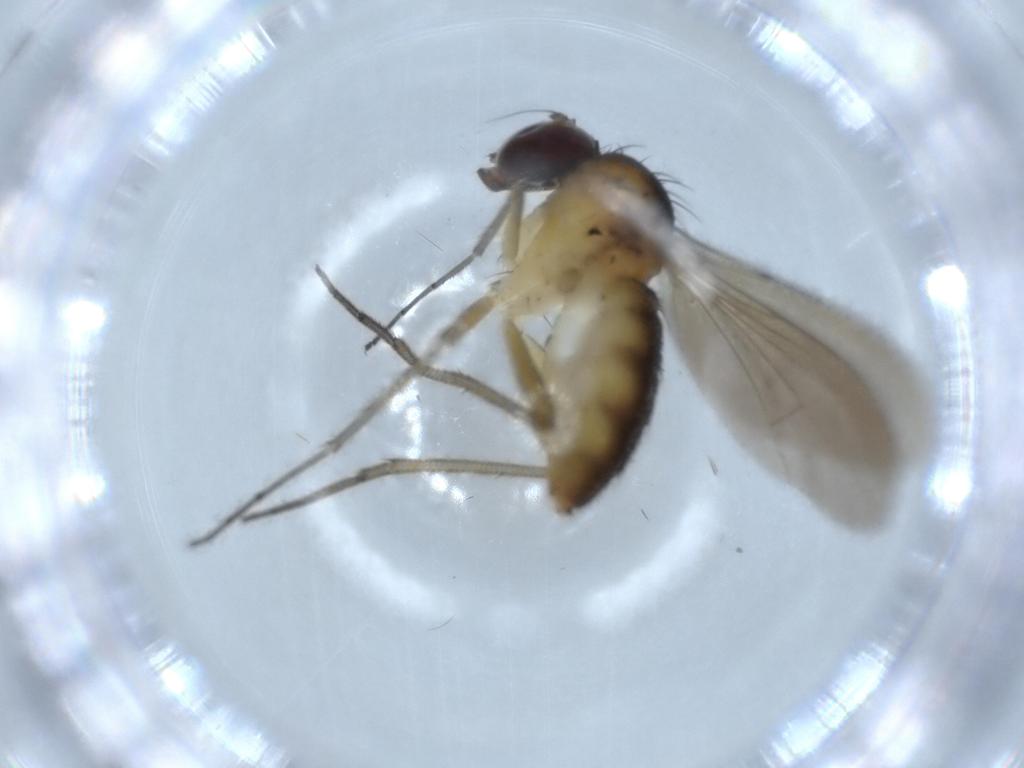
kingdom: Animalia
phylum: Arthropoda
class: Insecta
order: Diptera
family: Dolichopodidae
